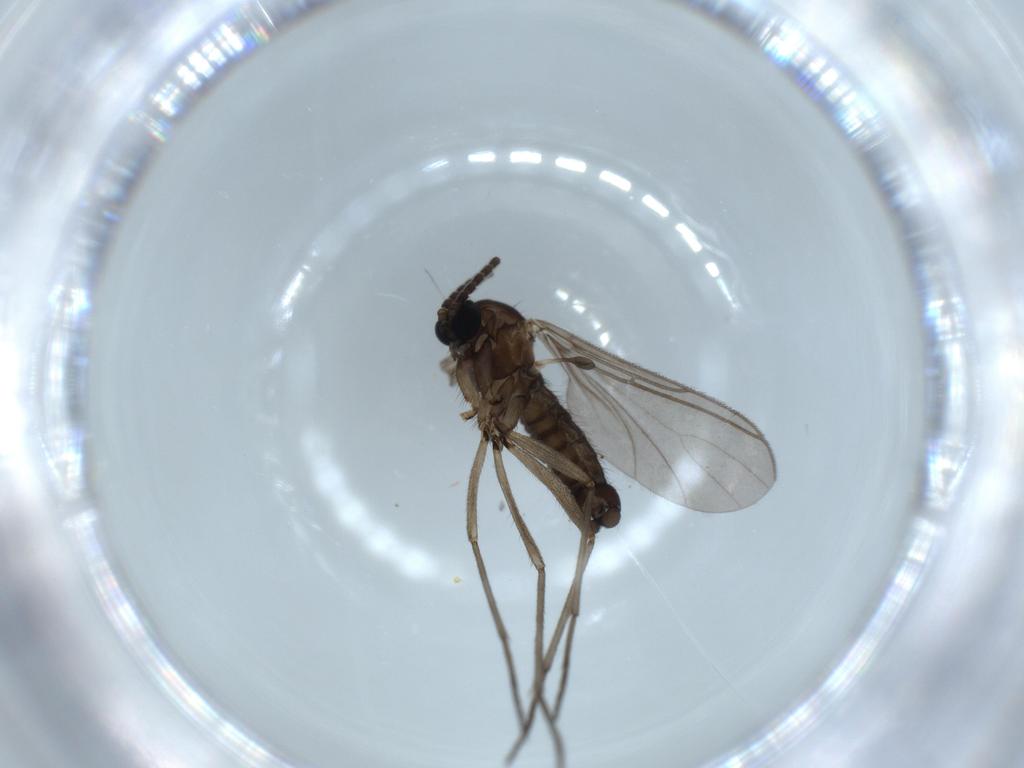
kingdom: Animalia
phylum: Arthropoda
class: Insecta
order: Diptera
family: Sciaridae
